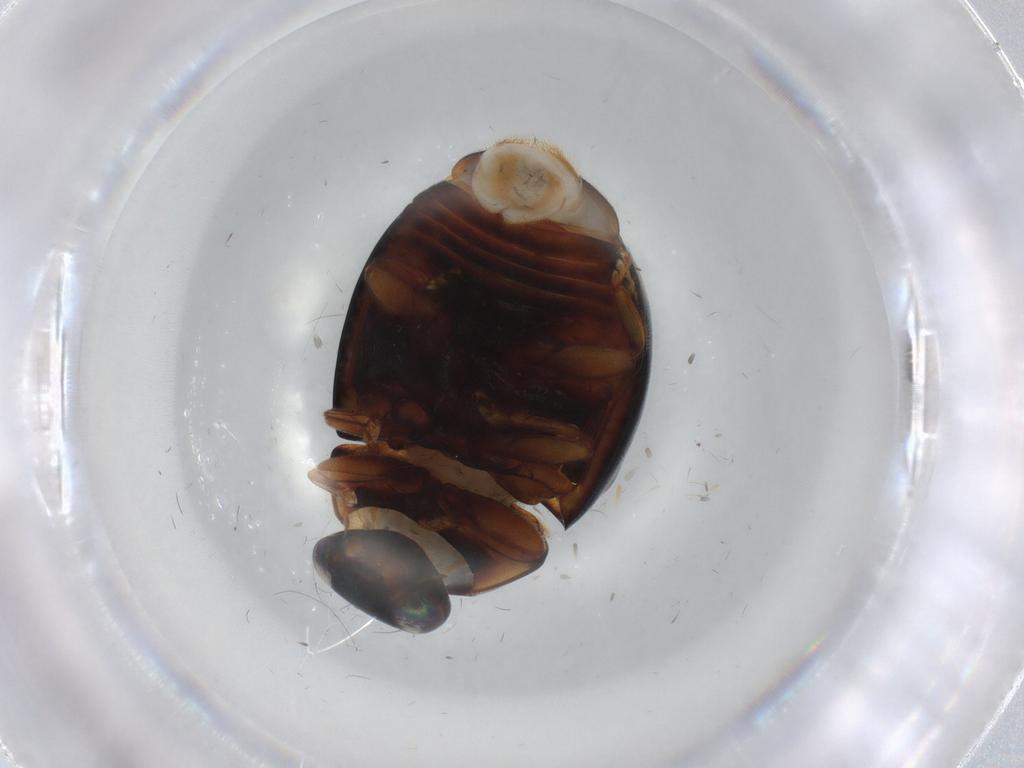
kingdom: Animalia
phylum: Arthropoda
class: Insecta
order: Coleoptera
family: Coccinellidae
